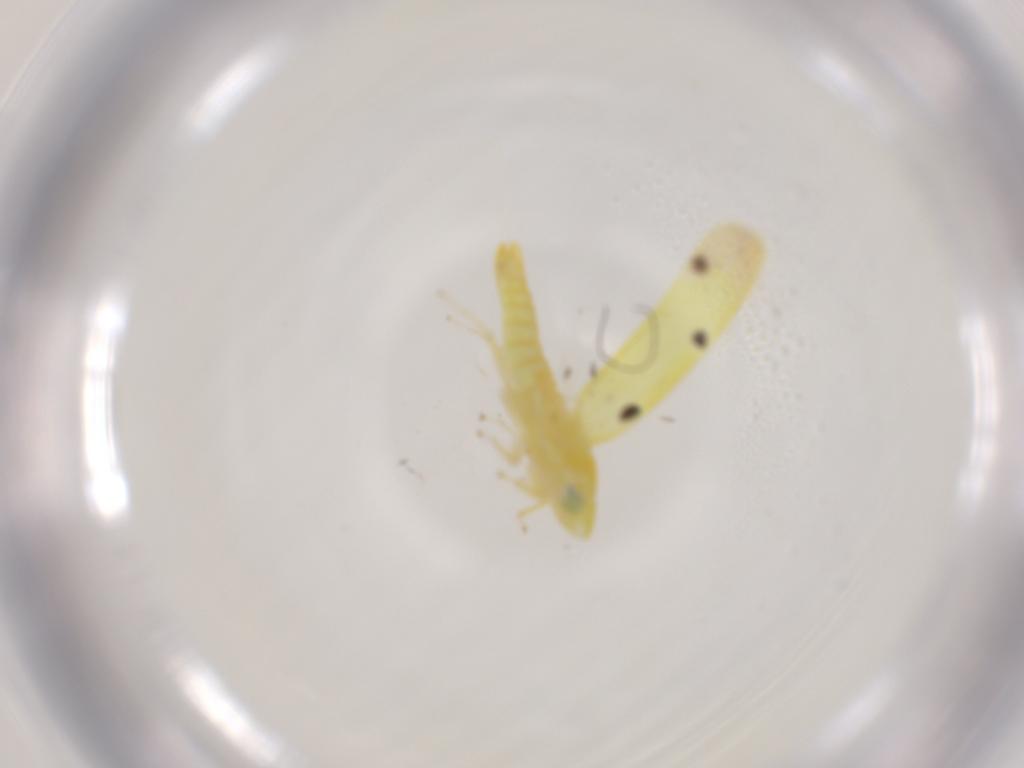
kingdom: Animalia
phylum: Arthropoda
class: Insecta
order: Hemiptera
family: Cicadellidae
